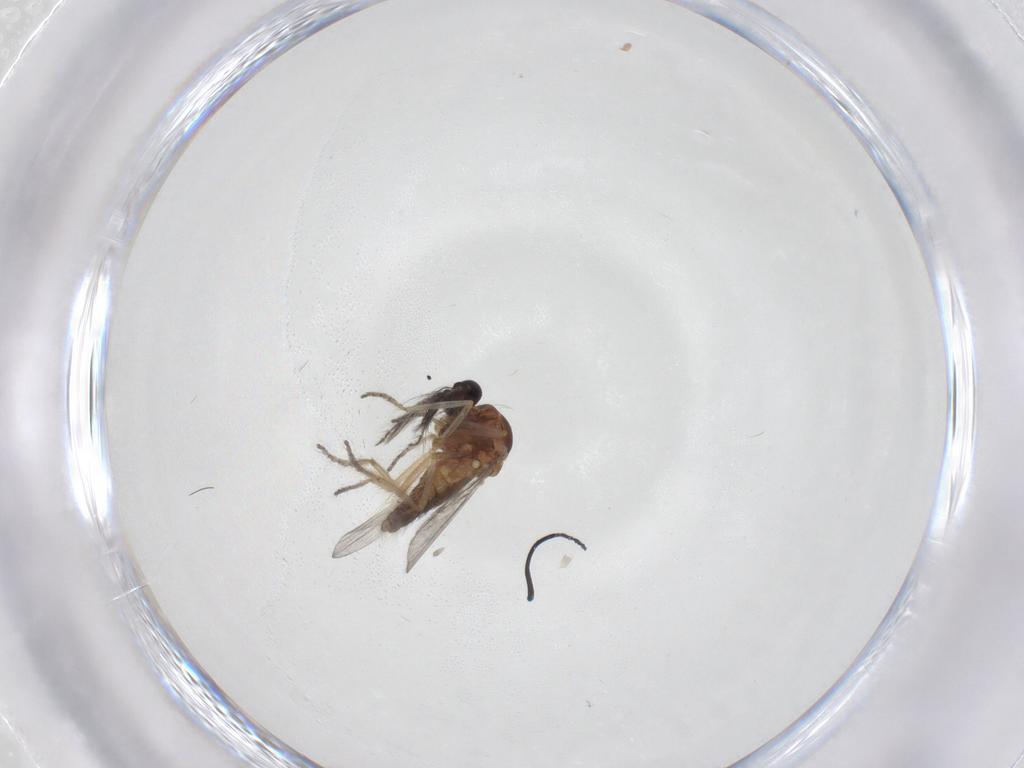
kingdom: Animalia
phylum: Arthropoda
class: Insecta
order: Diptera
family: Ceratopogonidae
